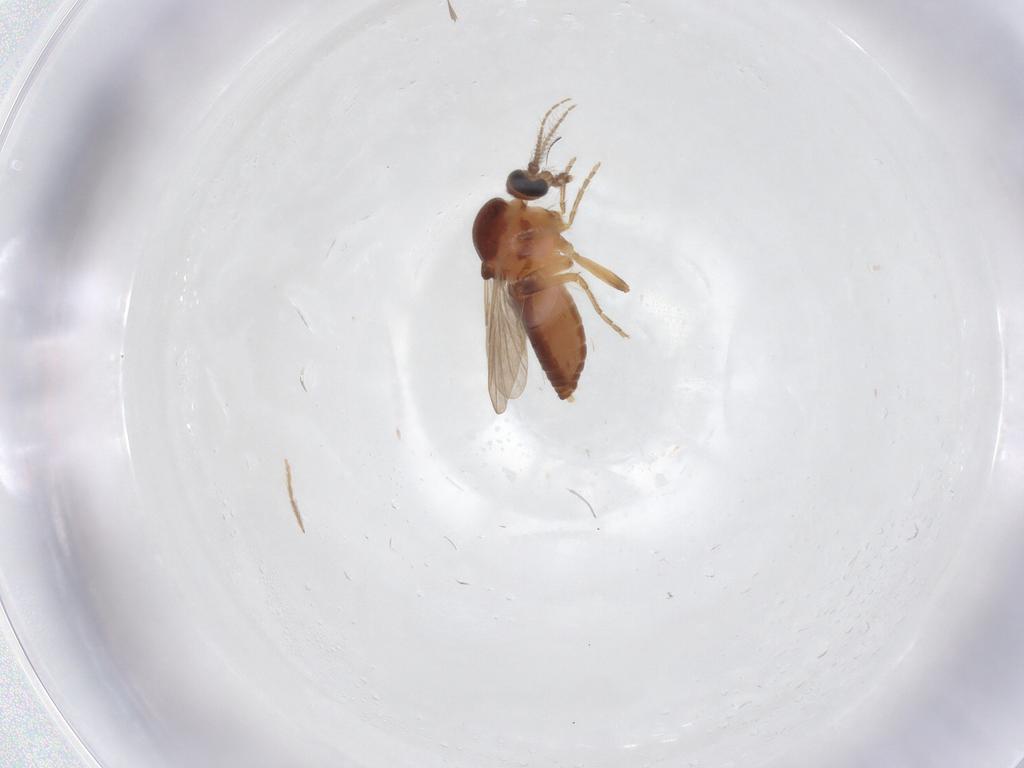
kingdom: Animalia
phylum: Arthropoda
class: Insecta
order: Diptera
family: Ceratopogonidae
